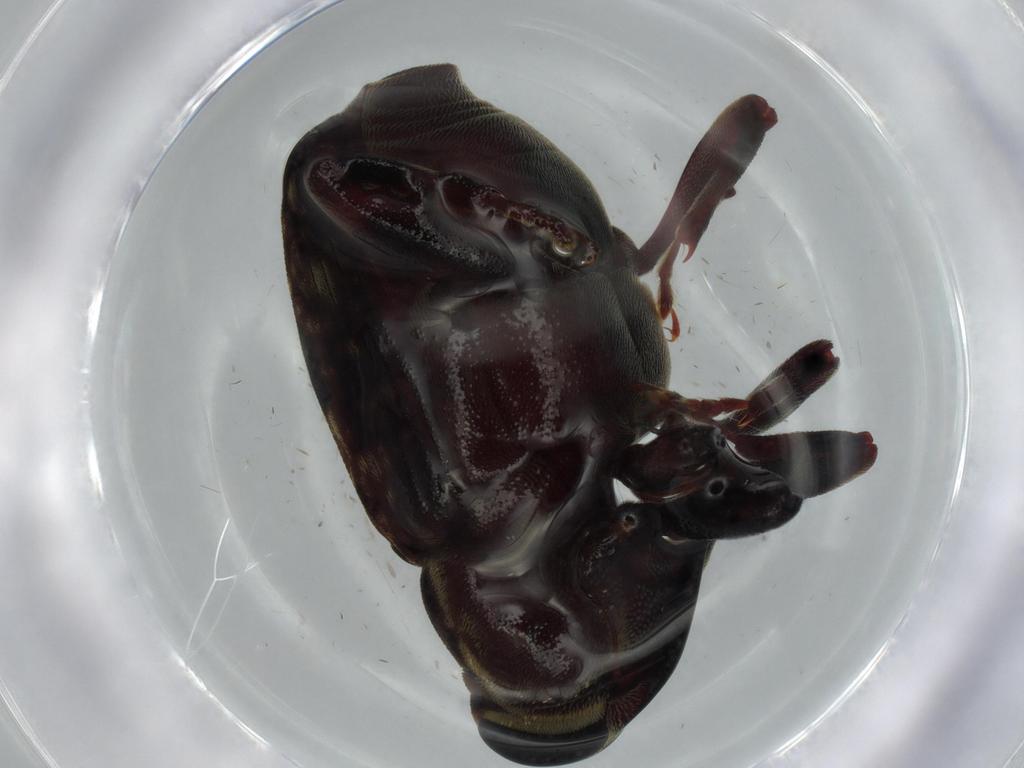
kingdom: Animalia
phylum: Arthropoda
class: Insecta
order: Coleoptera
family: Curculionidae
